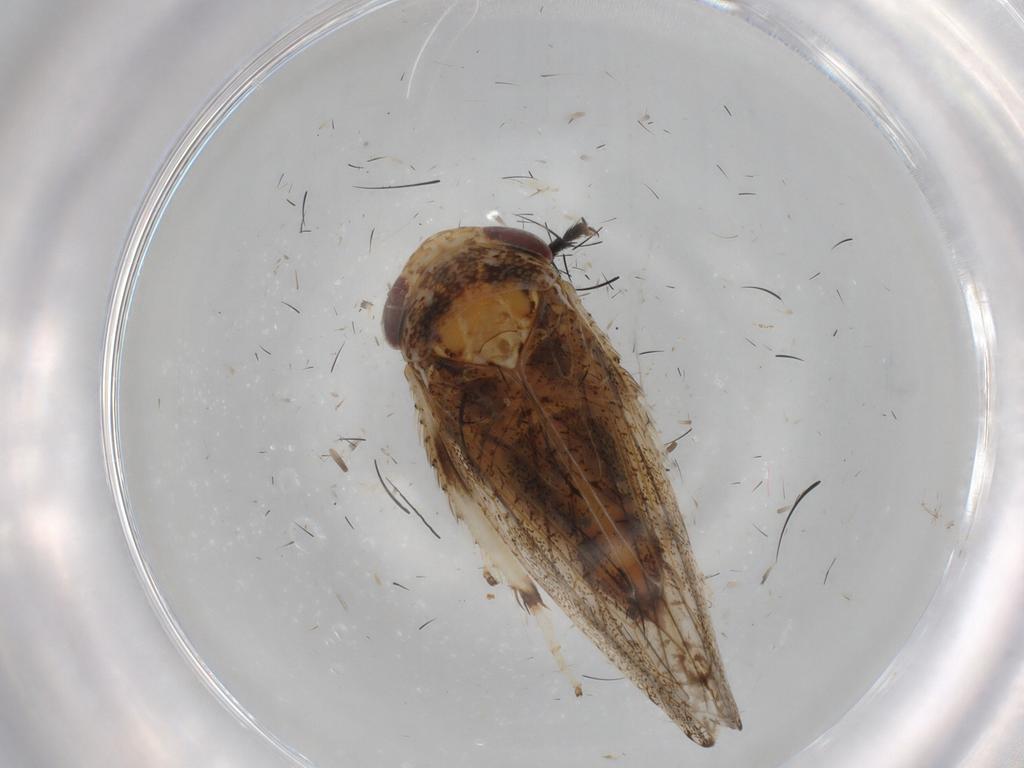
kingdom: Animalia
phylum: Arthropoda
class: Insecta
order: Hemiptera
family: Cicadellidae
